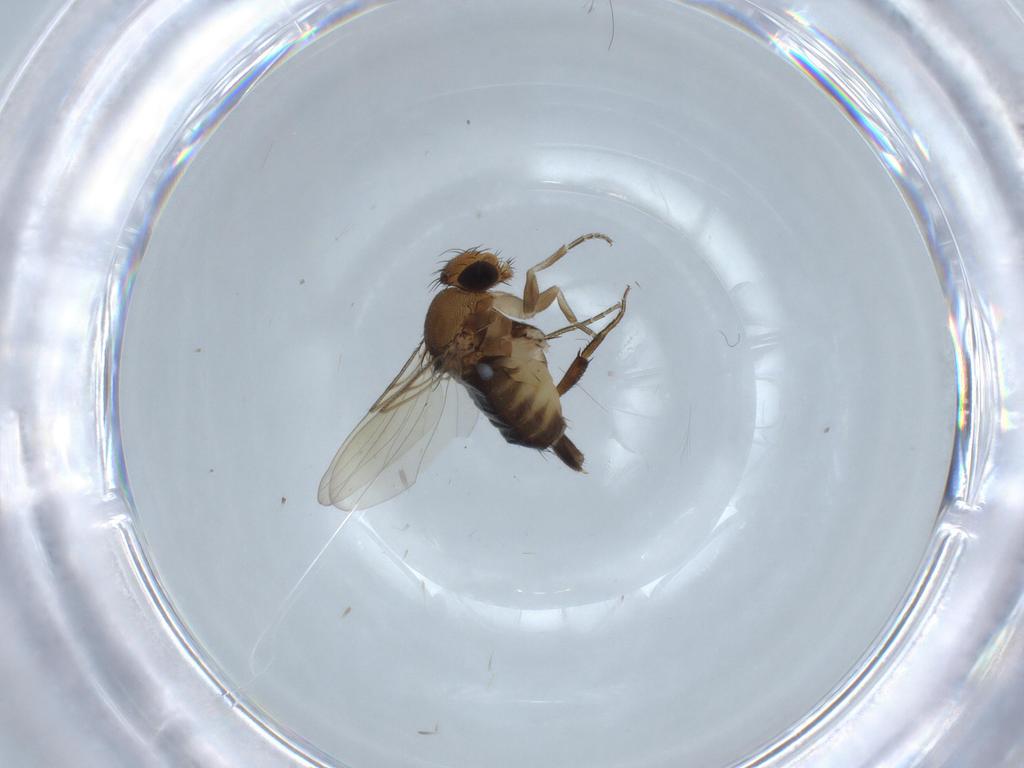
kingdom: Animalia
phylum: Arthropoda
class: Insecta
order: Diptera
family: Phoridae
